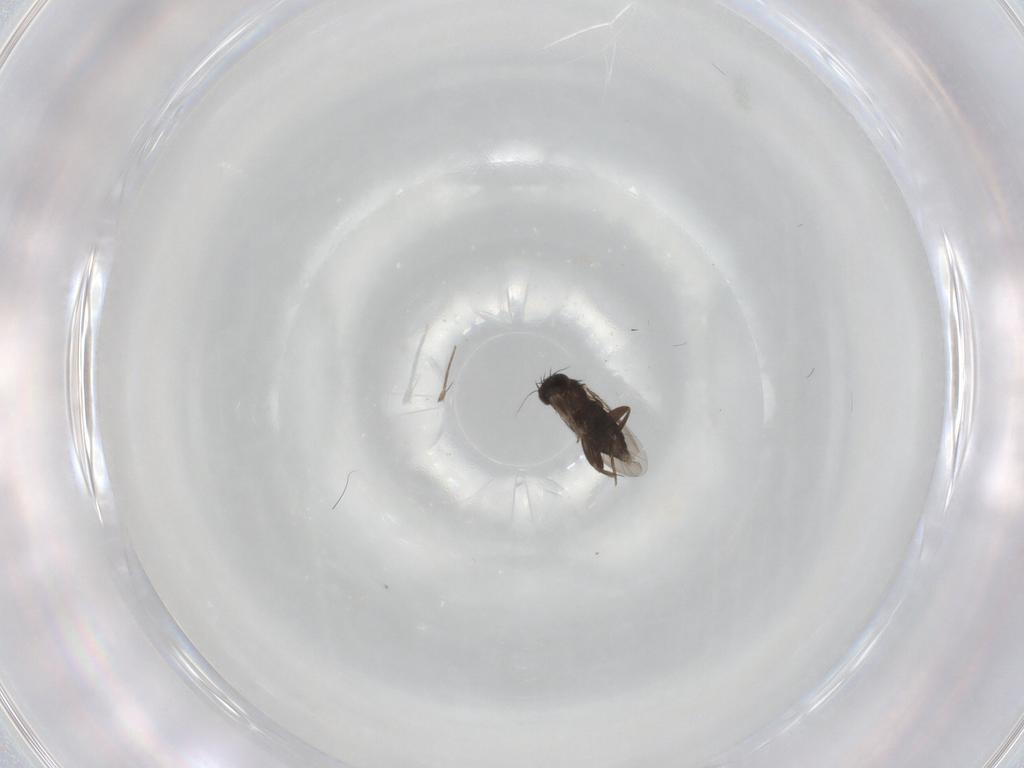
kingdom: Animalia
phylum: Arthropoda
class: Insecta
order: Diptera
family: Phoridae
